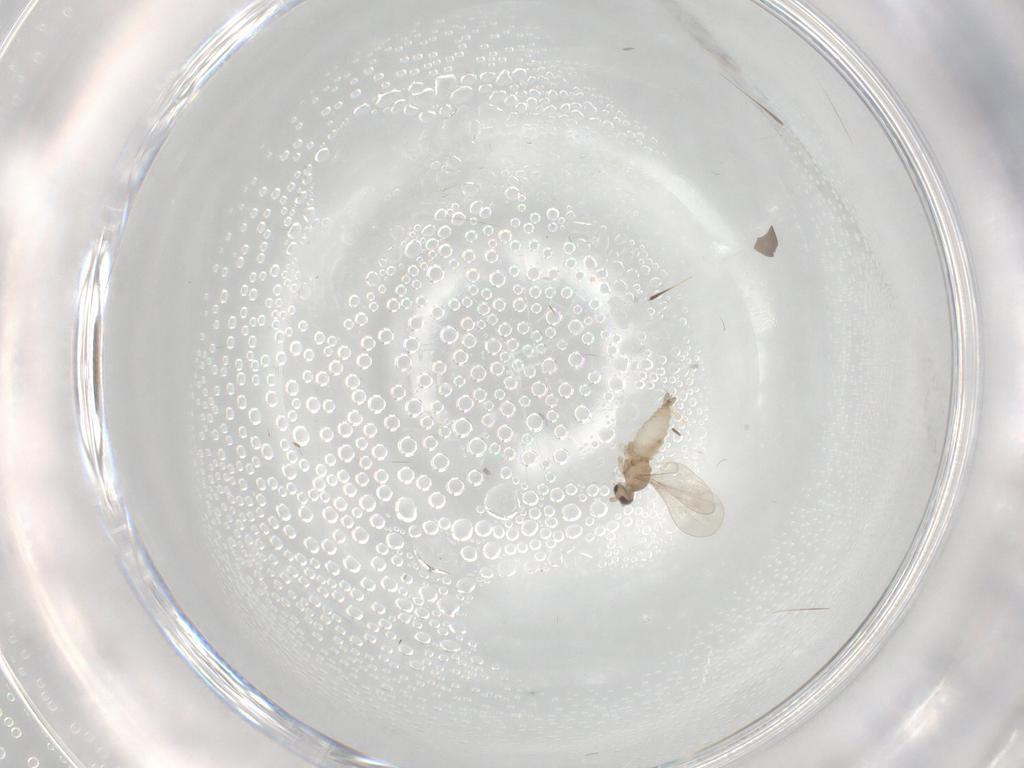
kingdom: Animalia
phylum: Arthropoda
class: Insecta
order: Diptera
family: Cecidomyiidae
